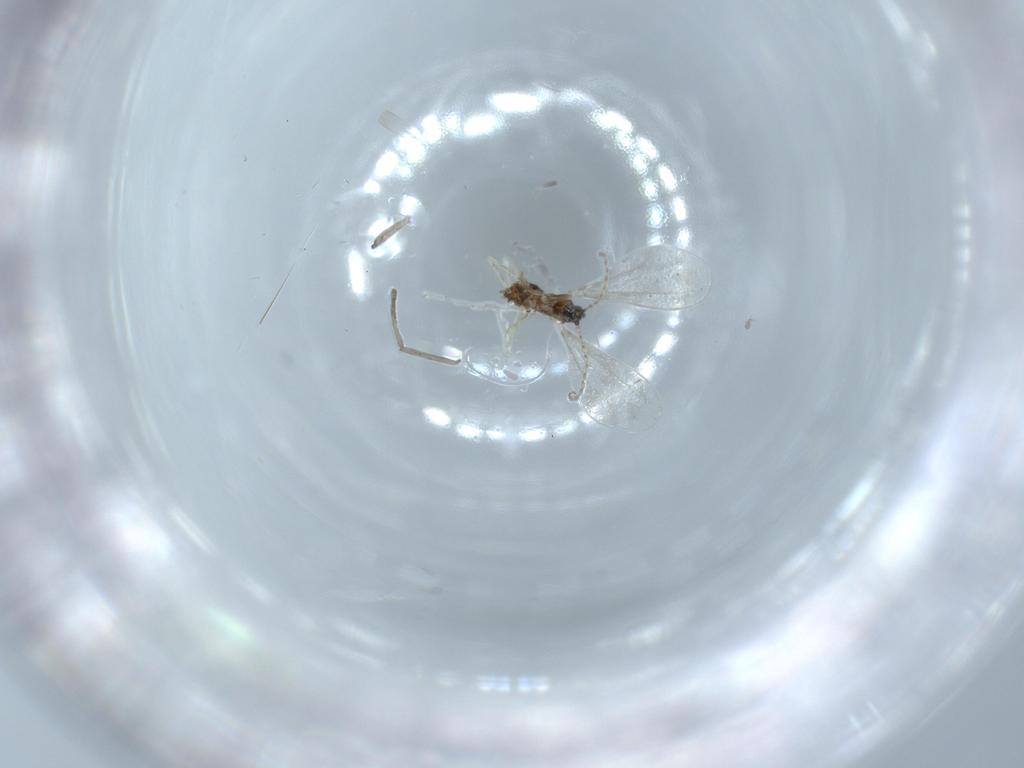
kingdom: Animalia
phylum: Arthropoda
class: Insecta
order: Diptera
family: Cecidomyiidae
